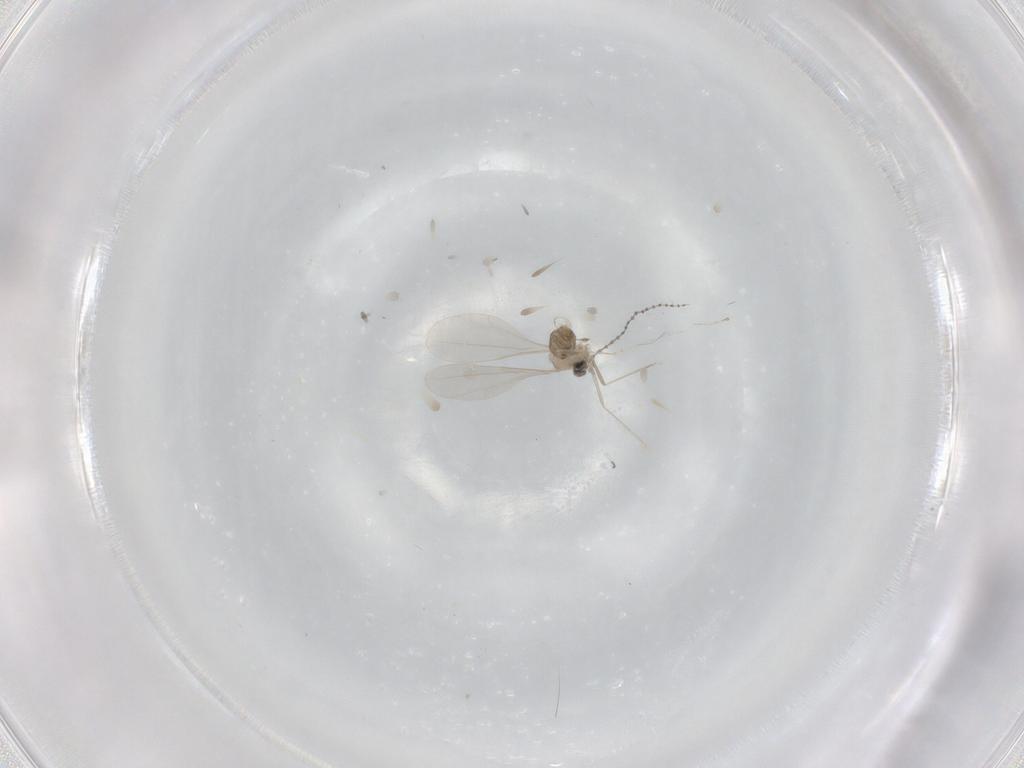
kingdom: Animalia
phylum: Arthropoda
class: Insecta
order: Diptera
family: Cecidomyiidae
